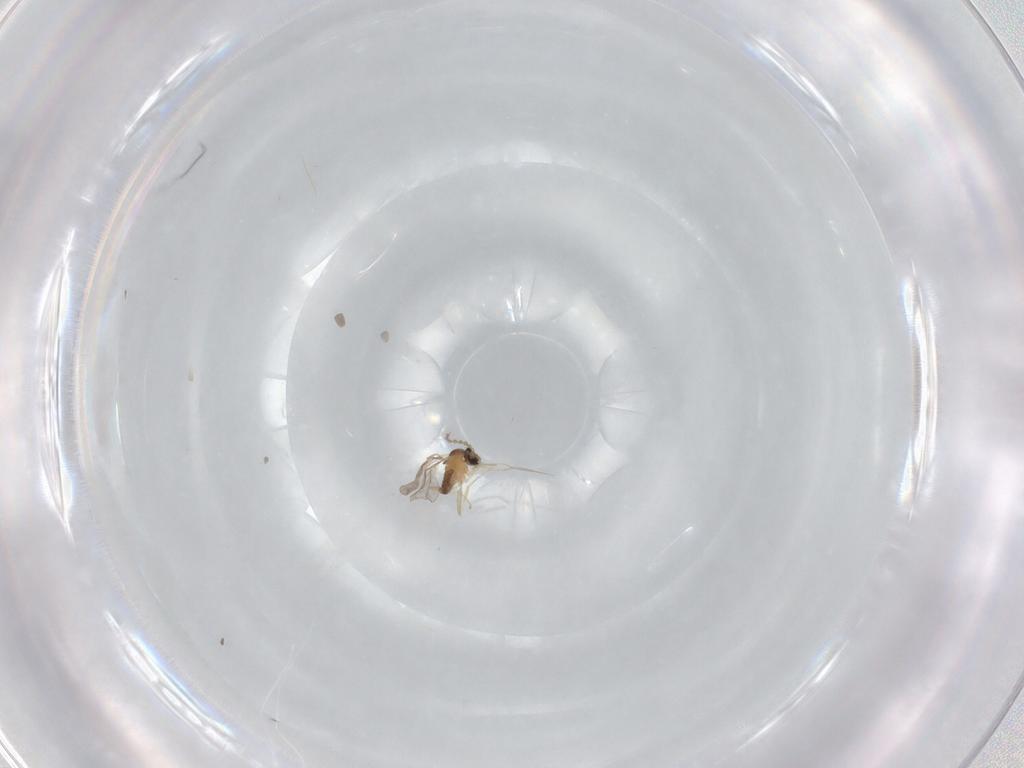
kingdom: Animalia
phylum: Arthropoda
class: Insecta
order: Diptera
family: Cecidomyiidae
